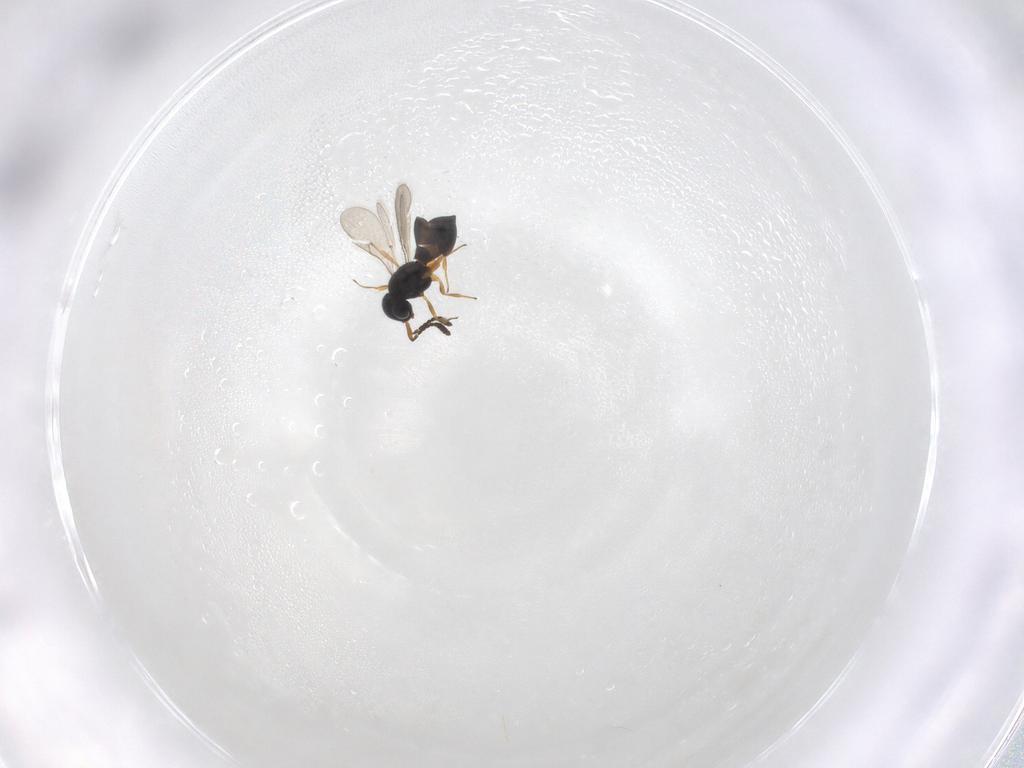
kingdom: Animalia
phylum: Arthropoda
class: Insecta
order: Hymenoptera
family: Scelionidae
